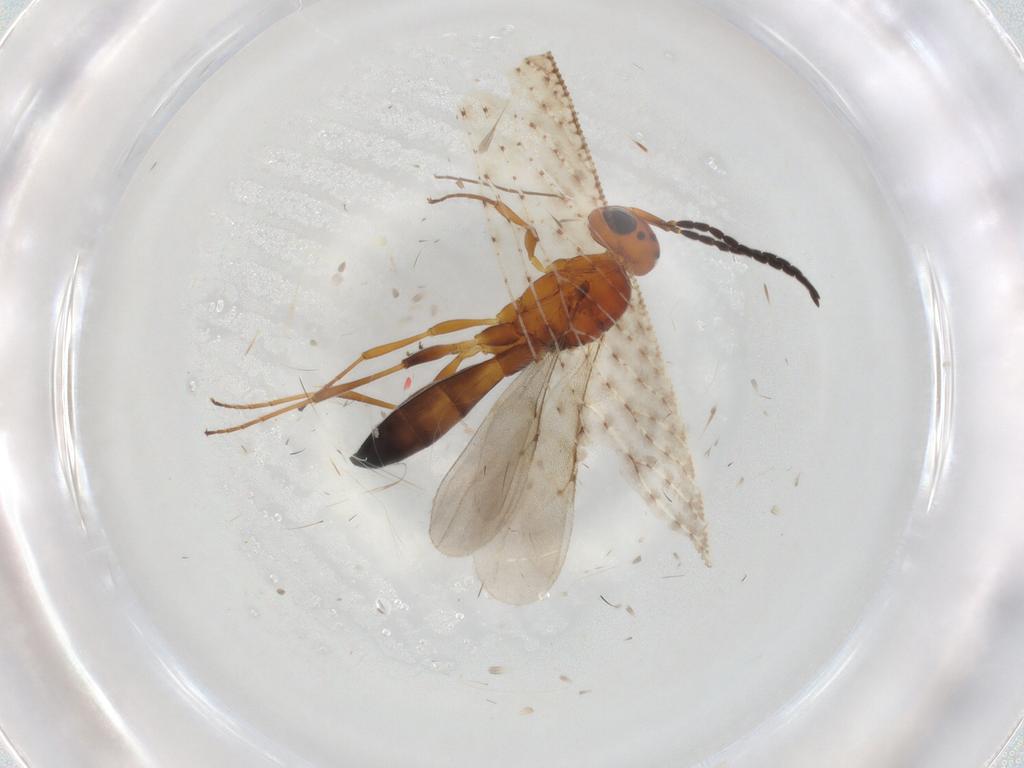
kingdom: Animalia
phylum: Arthropoda
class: Insecta
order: Hymenoptera
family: Scelionidae
